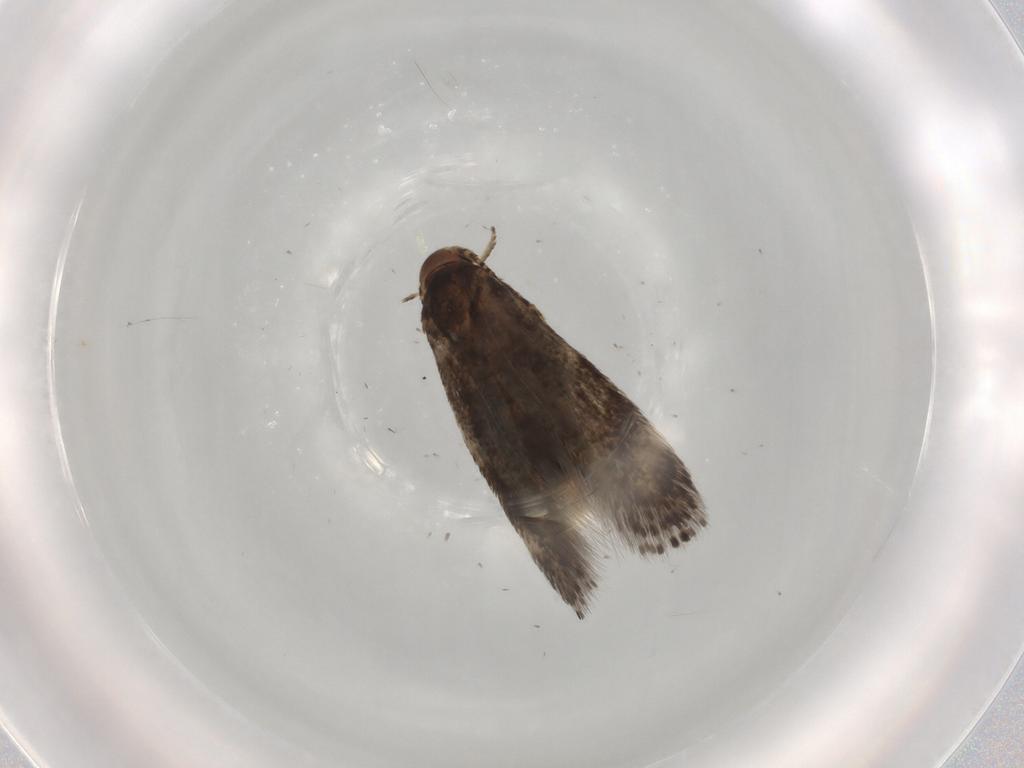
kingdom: Animalia
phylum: Arthropoda
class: Insecta
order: Lepidoptera
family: Elachistidae
